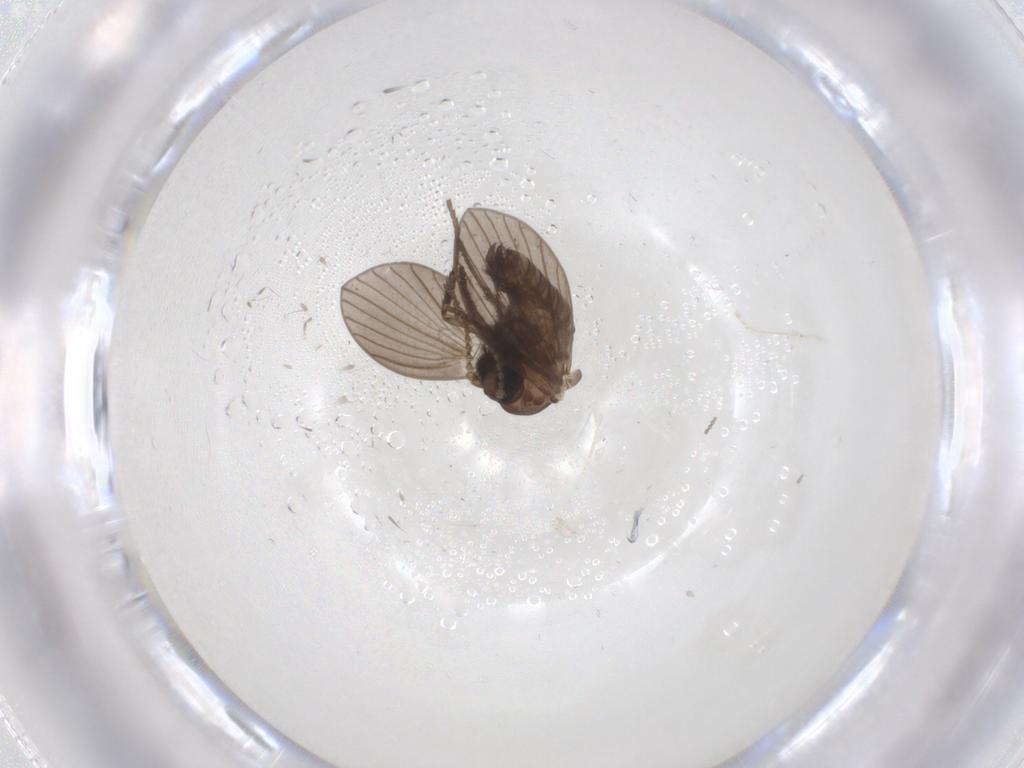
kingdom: Animalia
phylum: Arthropoda
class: Insecta
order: Diptera
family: Psychodidae
